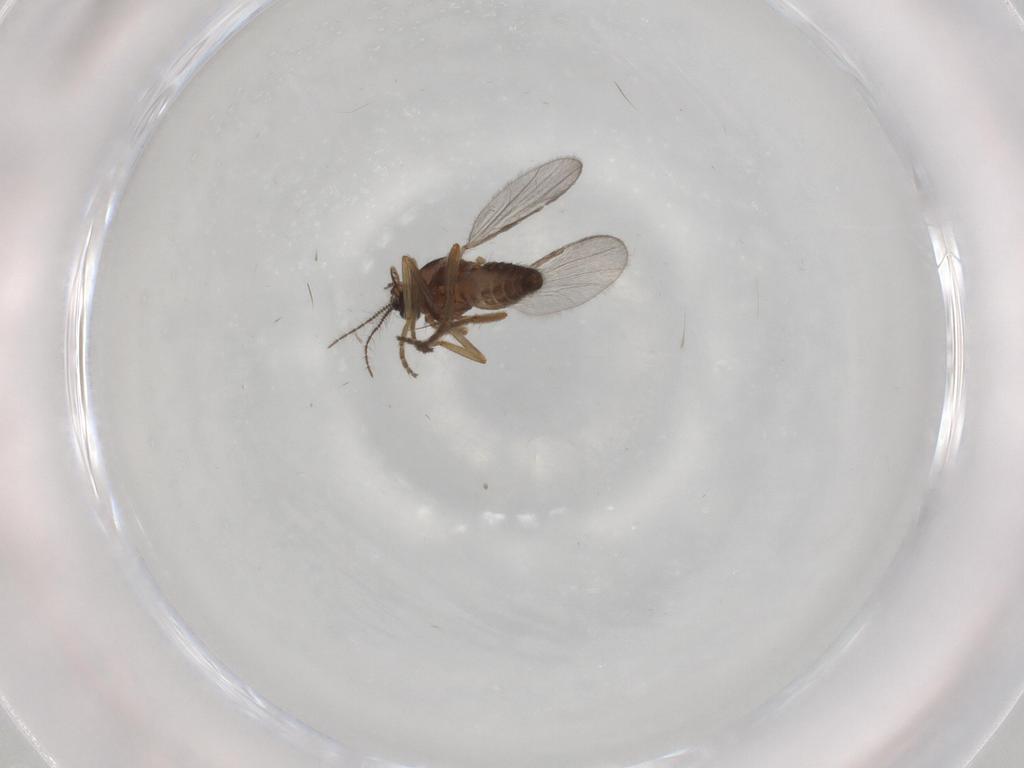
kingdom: Animalia
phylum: Arthropoda
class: Insecta
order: Diptera
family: Ceratopogonidae
